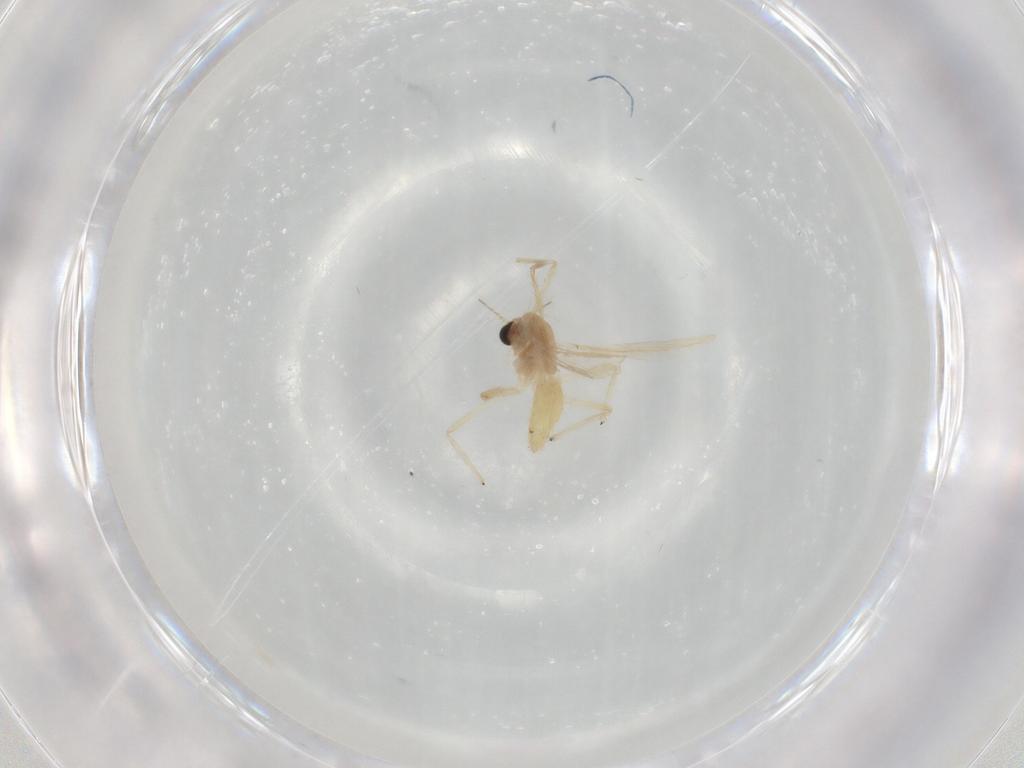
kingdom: Animalia
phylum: Arthropoda
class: Insecta
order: Diptera
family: Chironomidae
